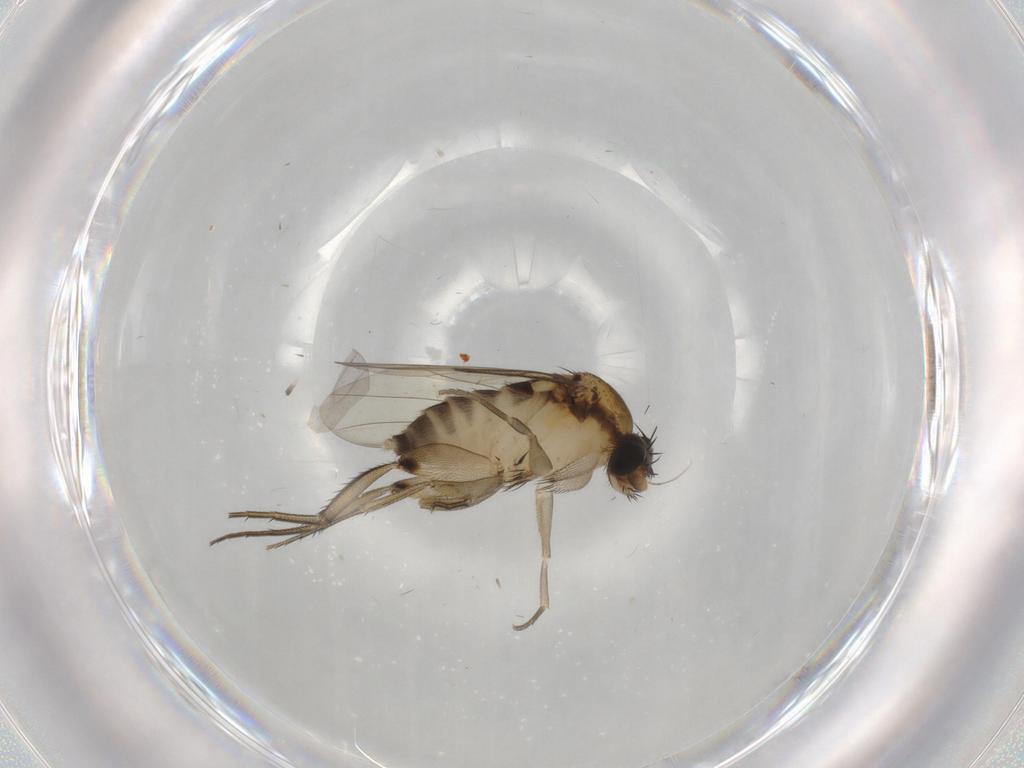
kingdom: Animalia
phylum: Arthropoda
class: Insecta
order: Diptera
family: Phoridae
